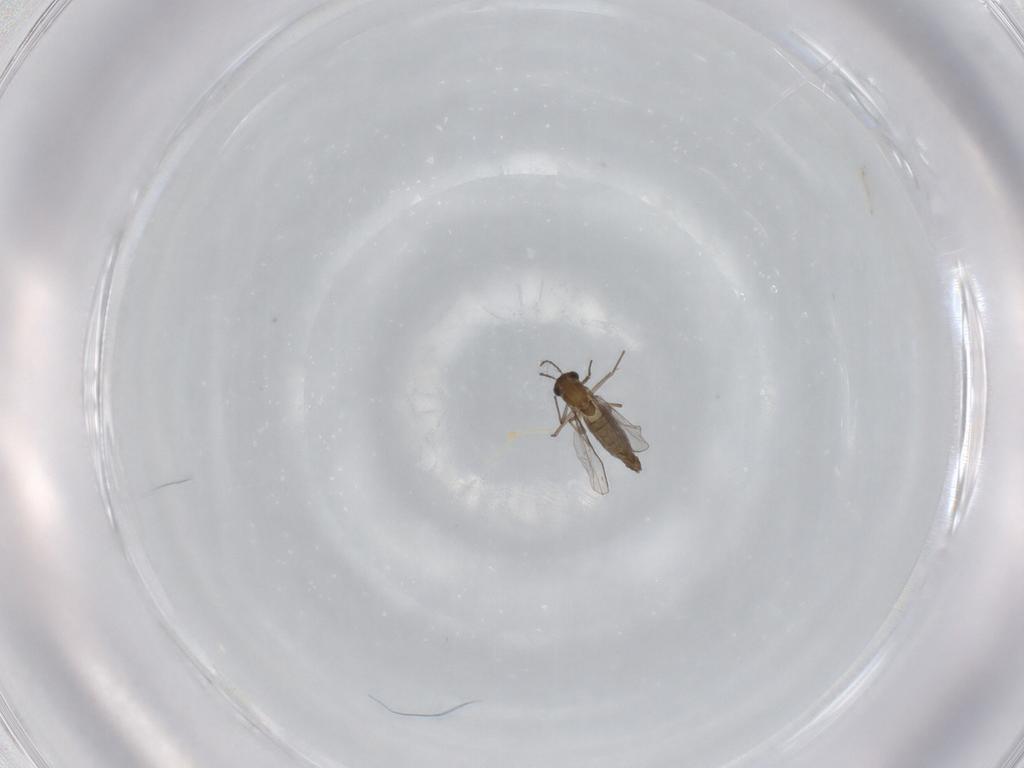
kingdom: Animalia
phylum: Arthropoda
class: Insecta
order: Diptera
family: Chironomidae
